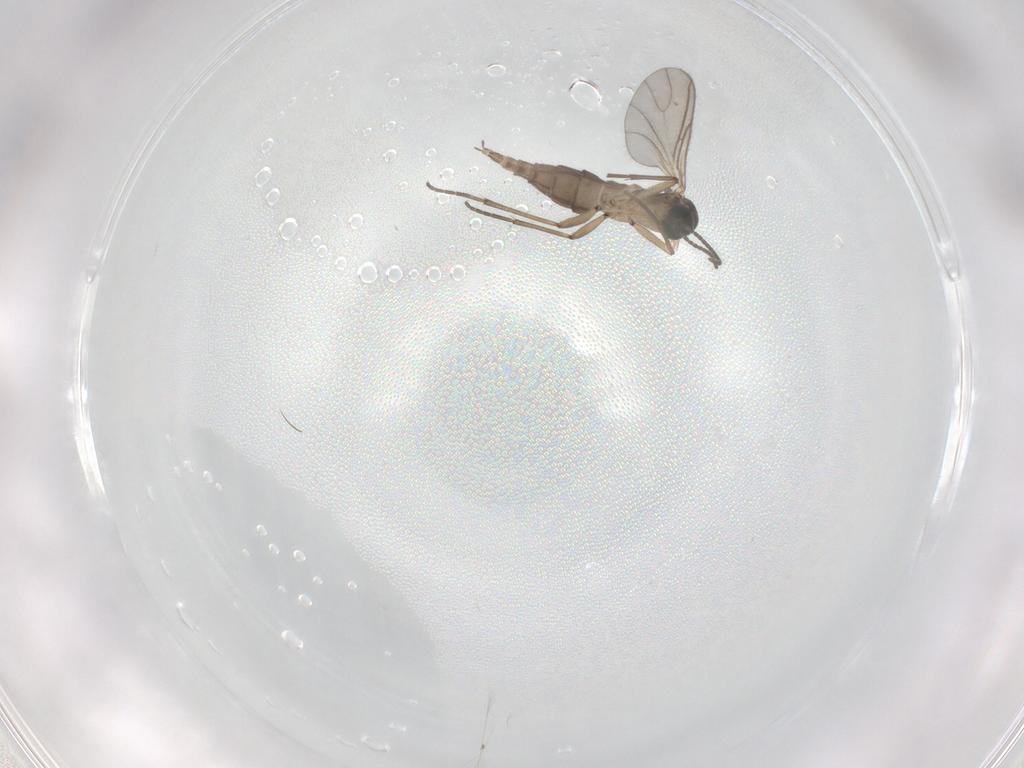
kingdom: Animalia
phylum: Arthropoda
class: Insecta
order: Diptera
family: Sciaridae
